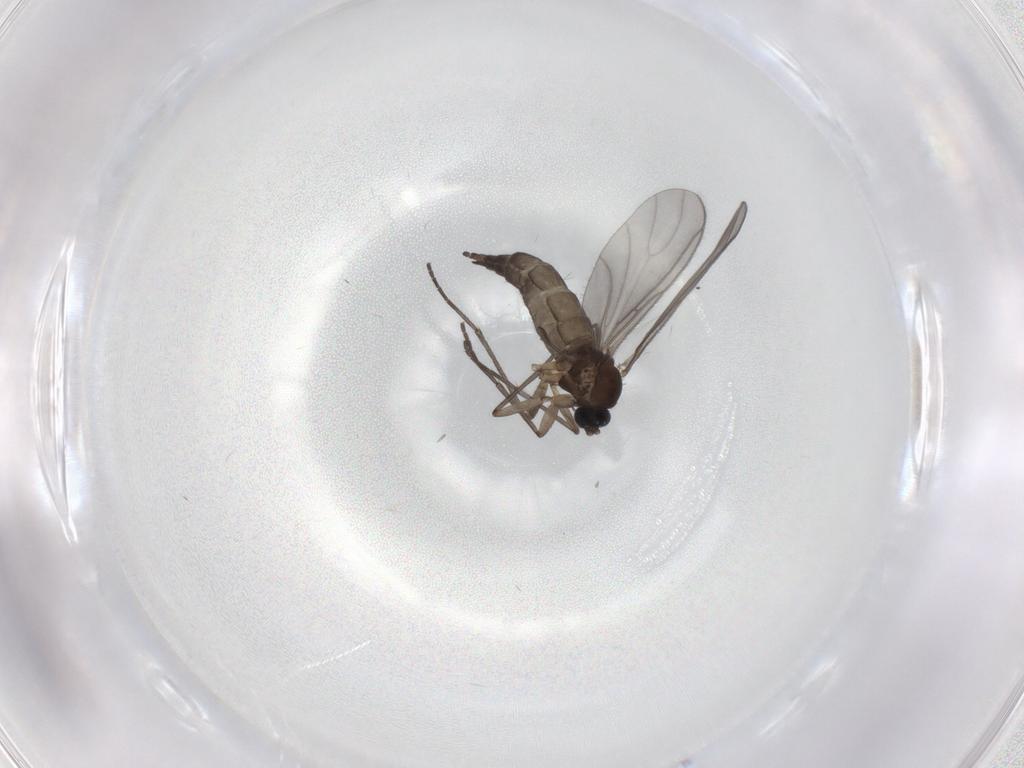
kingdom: Animalia
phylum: Arthropoda
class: Insecta
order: Diptera
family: Sciaridae
